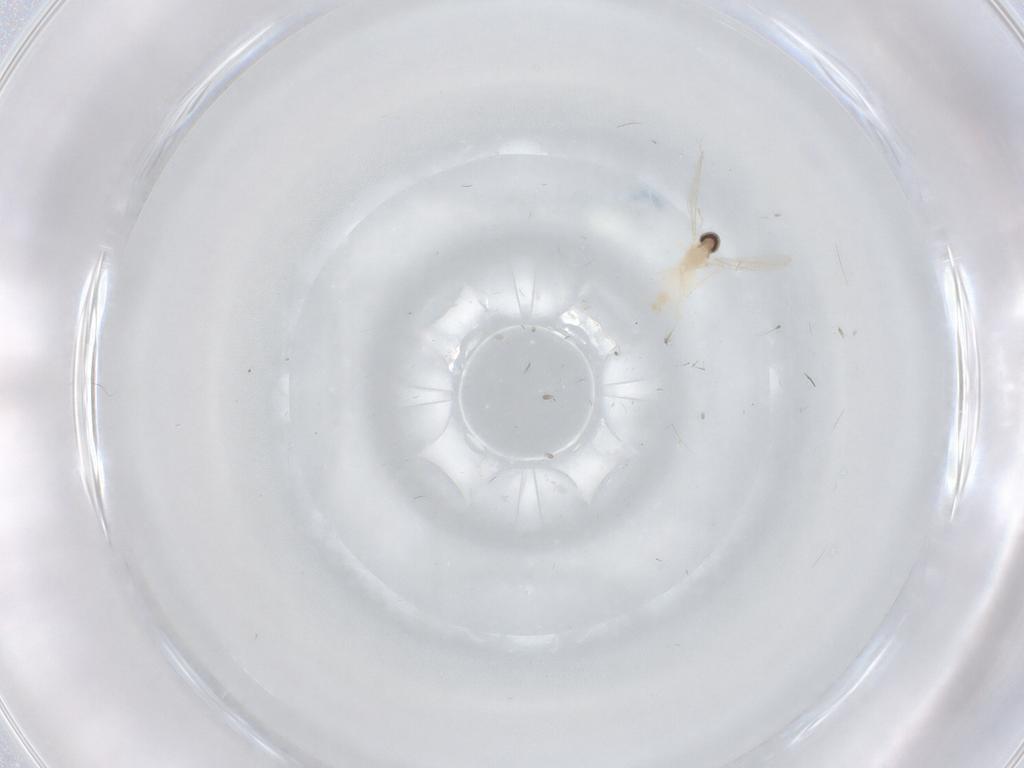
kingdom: Animalia
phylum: Arthropoda
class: Insecta
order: Diptera
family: Chironomidae
